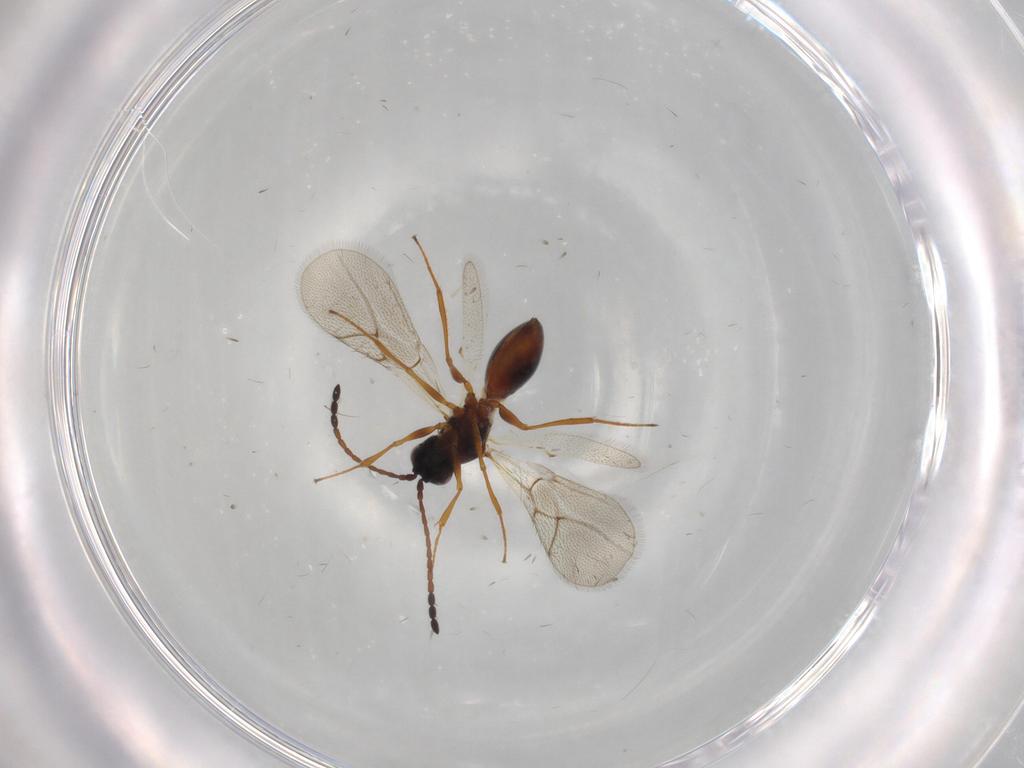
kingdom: Animalia
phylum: Arthropoda
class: Insecta
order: Hymenoptera
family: Figitidae
